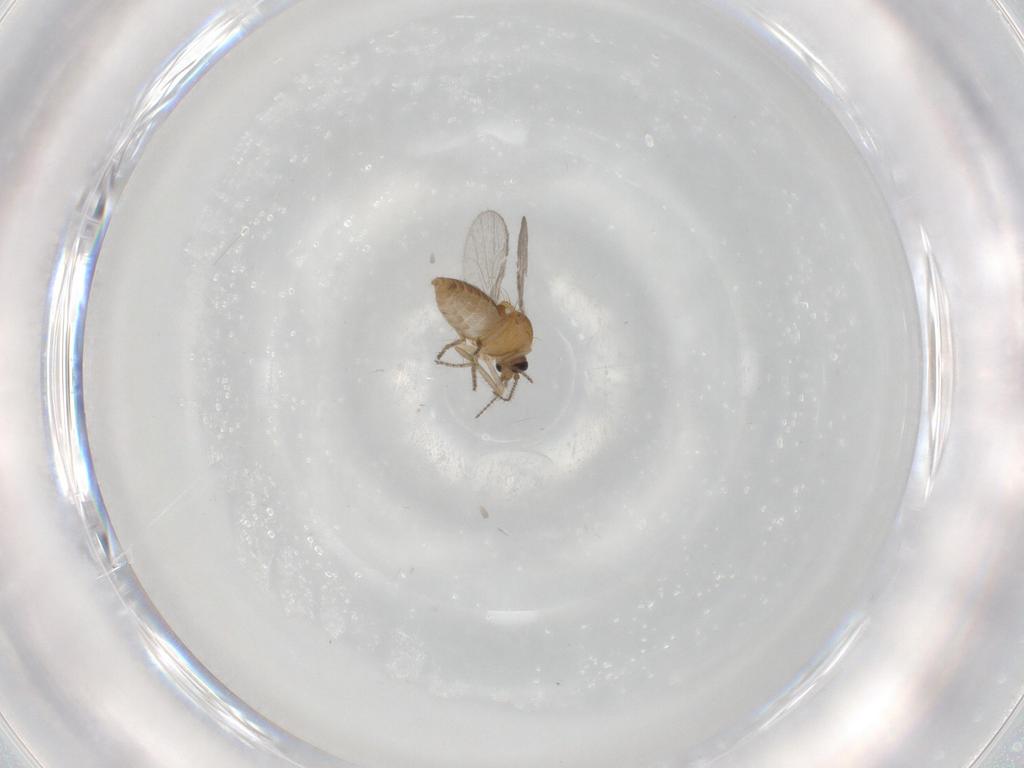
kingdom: Animalia
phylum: Arthropoda
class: Insecta
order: Diptera
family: Ceratopogonidae
